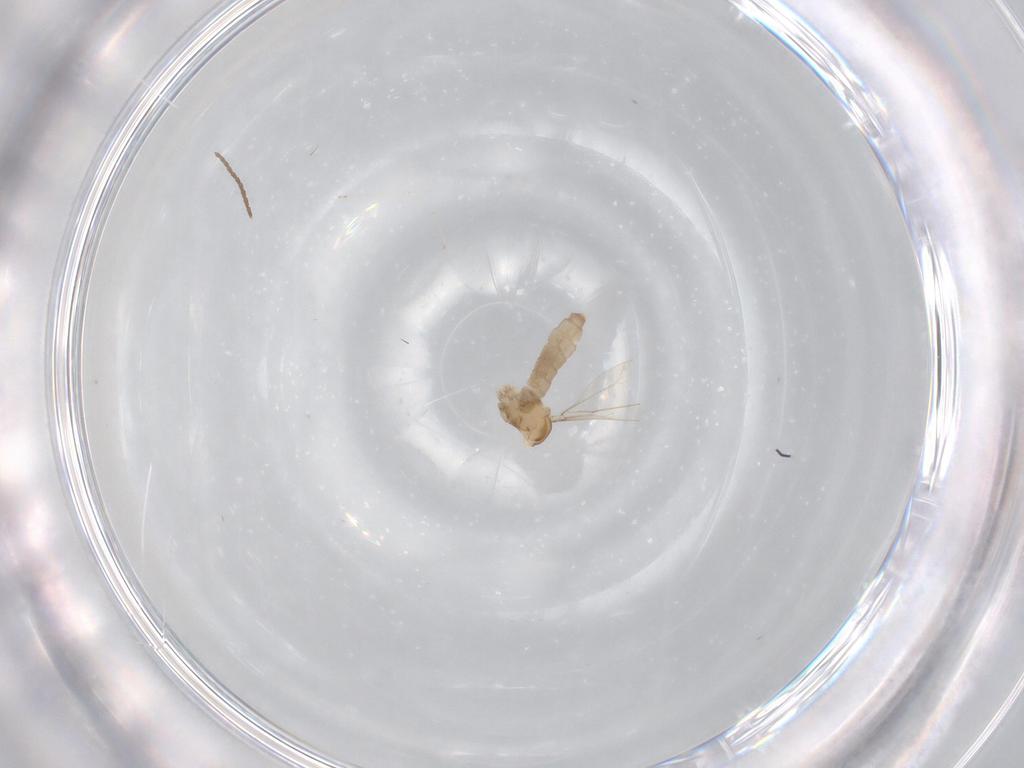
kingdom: Animalia
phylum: Arthropoda
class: Insecta
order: Diptera
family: Cecidomyiidae
